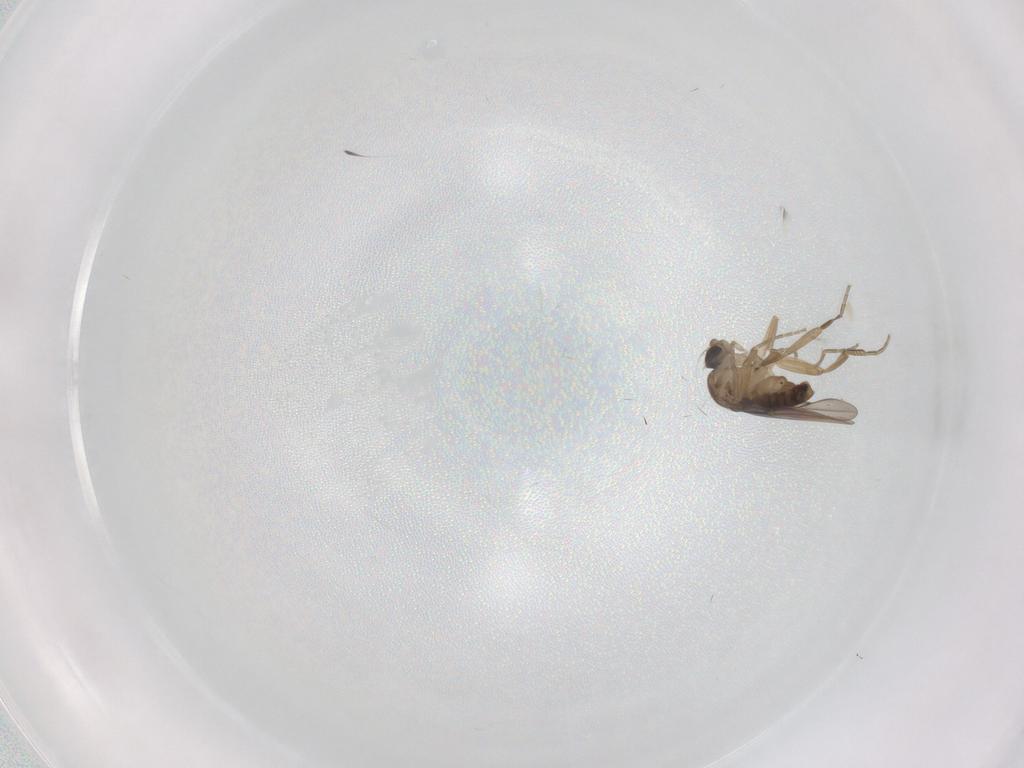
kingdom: Animalia
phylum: Arthropoda
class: Insecta
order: Diptera
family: Phoridae
